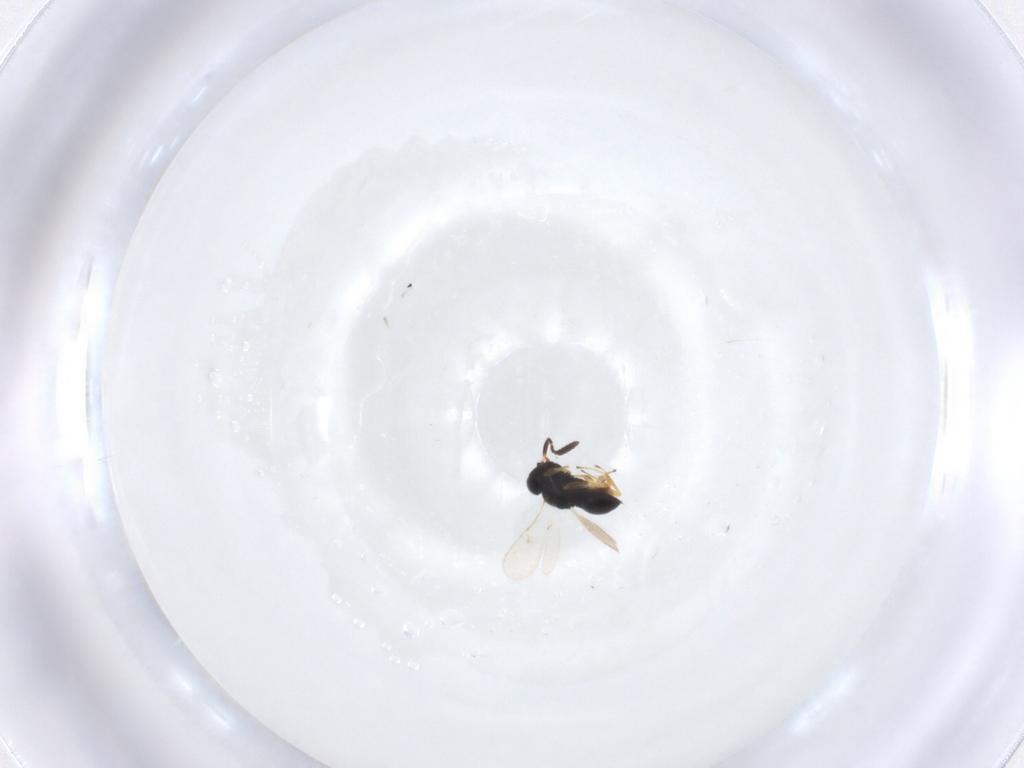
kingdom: Animalia
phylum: Arthropoda
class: Insecta
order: Hymenoptera
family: Scelionidae
